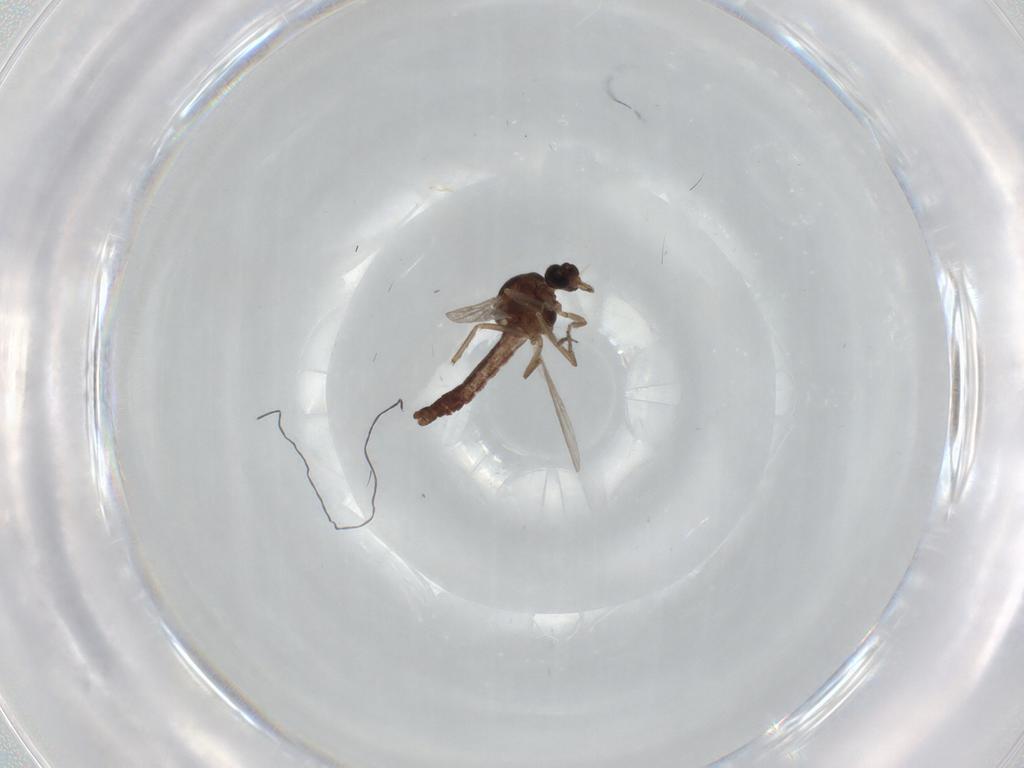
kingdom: Animalia
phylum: Arthropoda
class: Insecta
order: Diptera
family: Ceratopogonidae
